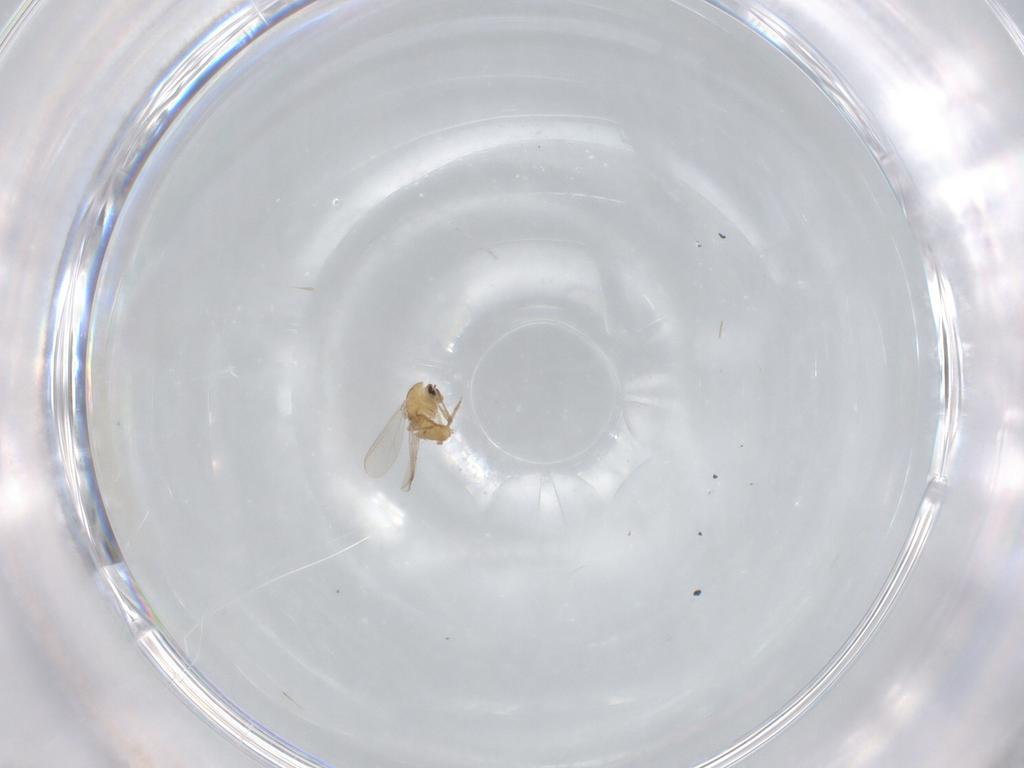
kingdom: Animalia
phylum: Arthropoda
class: Insecta
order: Diptera
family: Chironomidae
